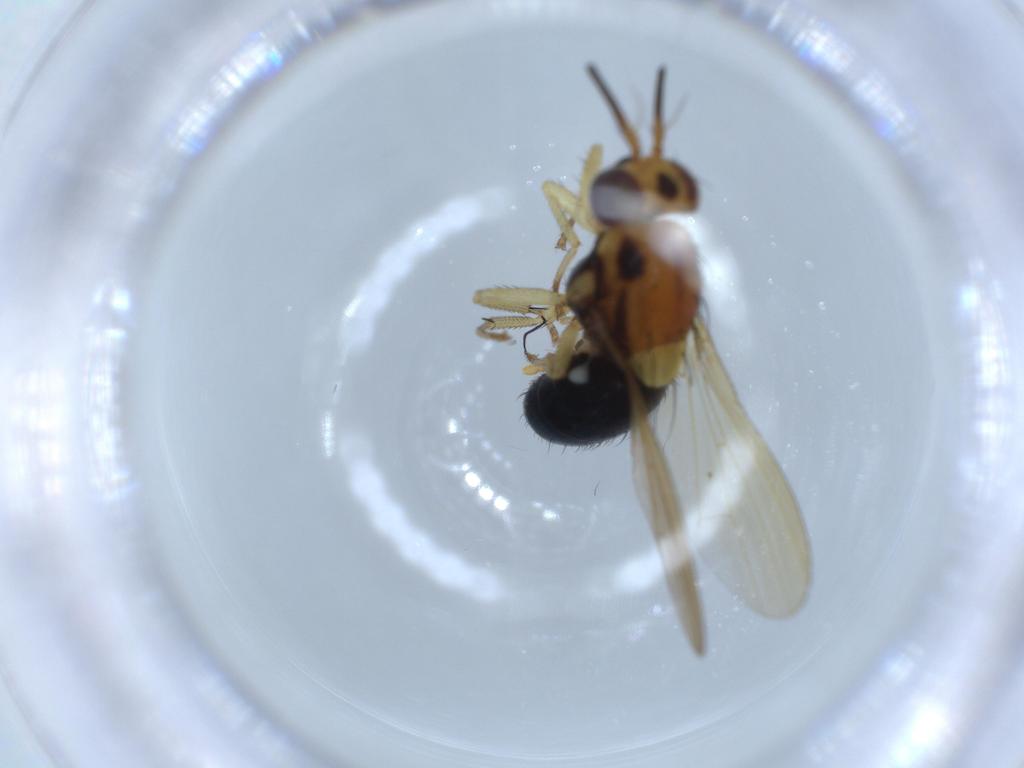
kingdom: Animalia
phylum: Arthropoda
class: Insecta
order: Diptera
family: Lauxaniidae
